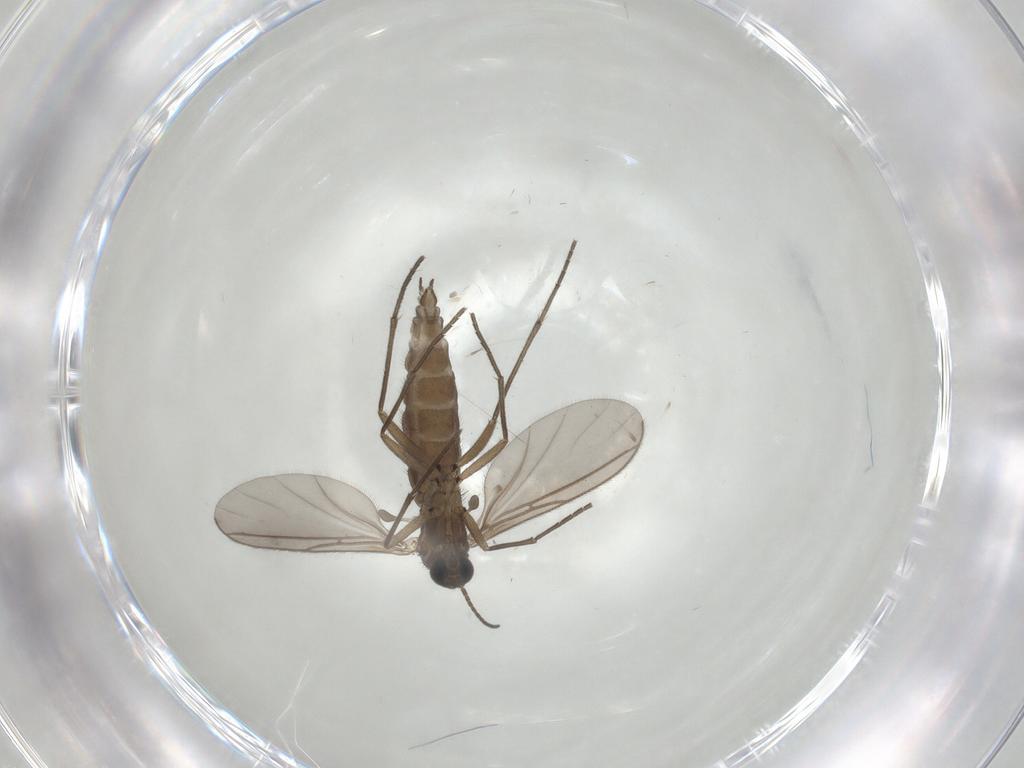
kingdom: Animalia
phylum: Arthropoda
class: Insecta
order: Diptera
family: Sciaridae
